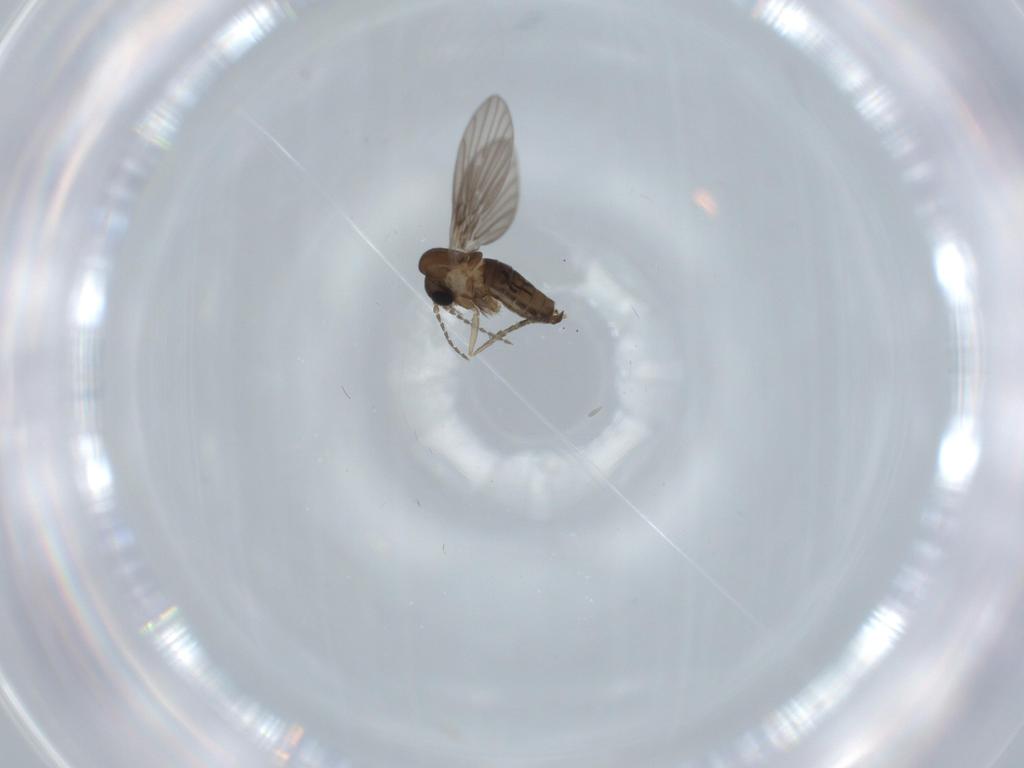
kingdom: Animalia
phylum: Arthropoda
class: Insecta
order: Diptera
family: Psychodidae
